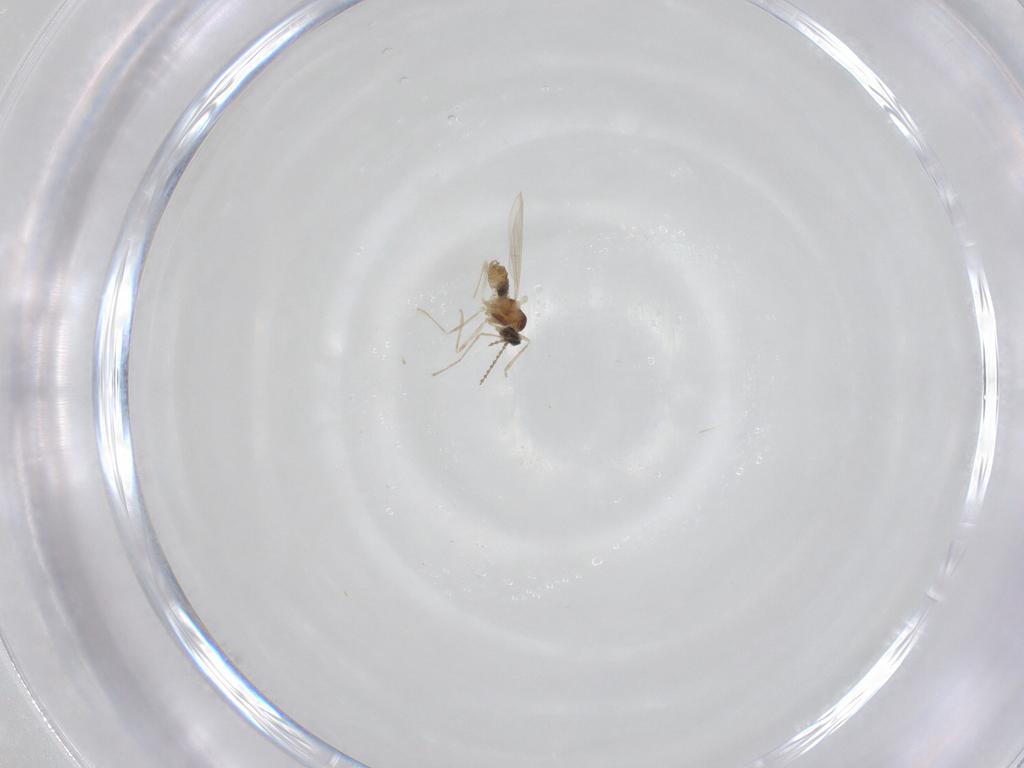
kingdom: Animalia
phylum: Arthropoda
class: Insecta
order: Diptera
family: Cecidomyiidae
